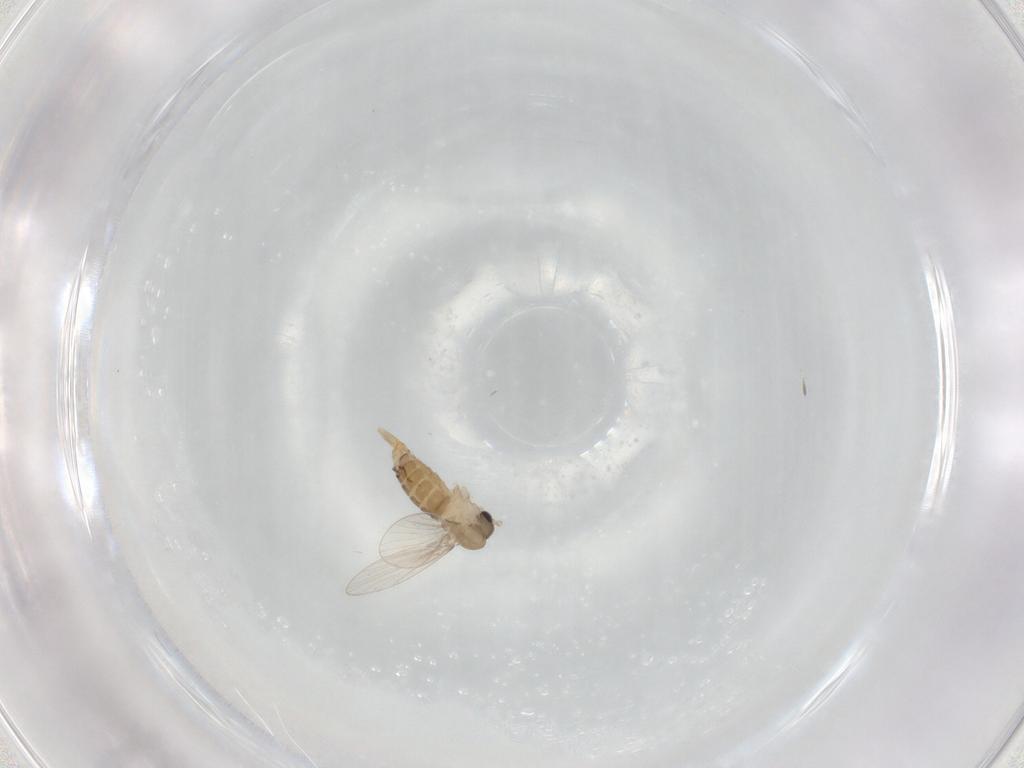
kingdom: Animalia
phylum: Arthropoda
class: Insecta
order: Diptera
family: Psychodidae
